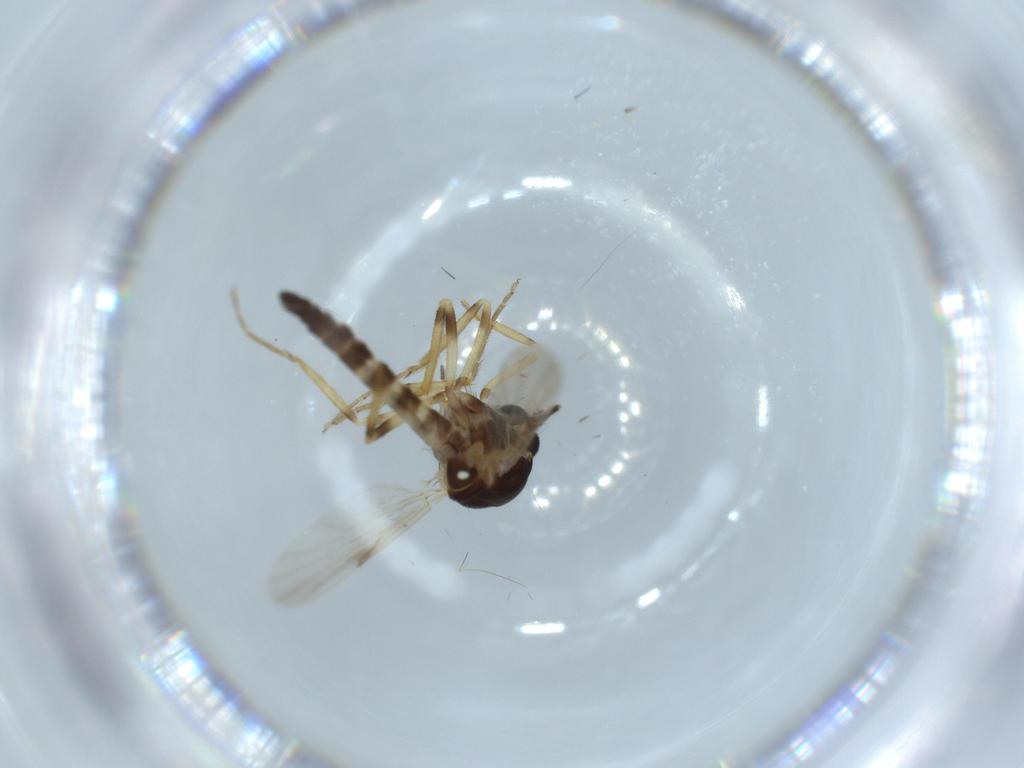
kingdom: Animalia
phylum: Arthropoda
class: Insecta
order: Diptera
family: Ceratopogonidae
